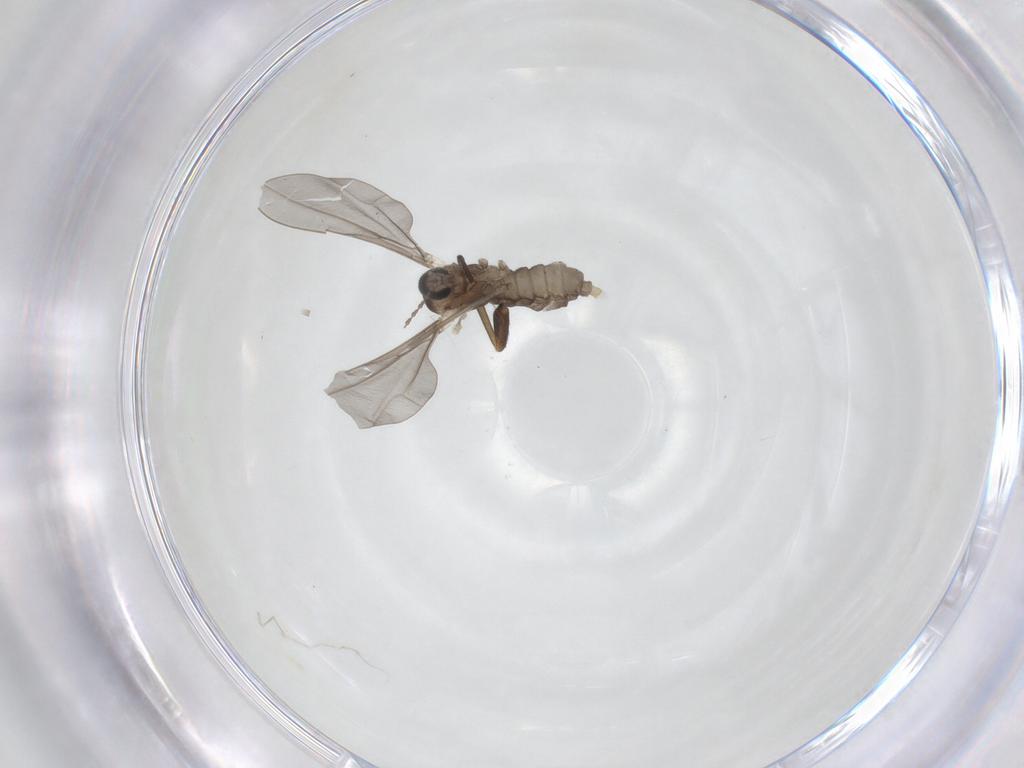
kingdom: Animalia
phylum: Arthropoda
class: Insecta
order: Diptera
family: Cecidomyiidae
